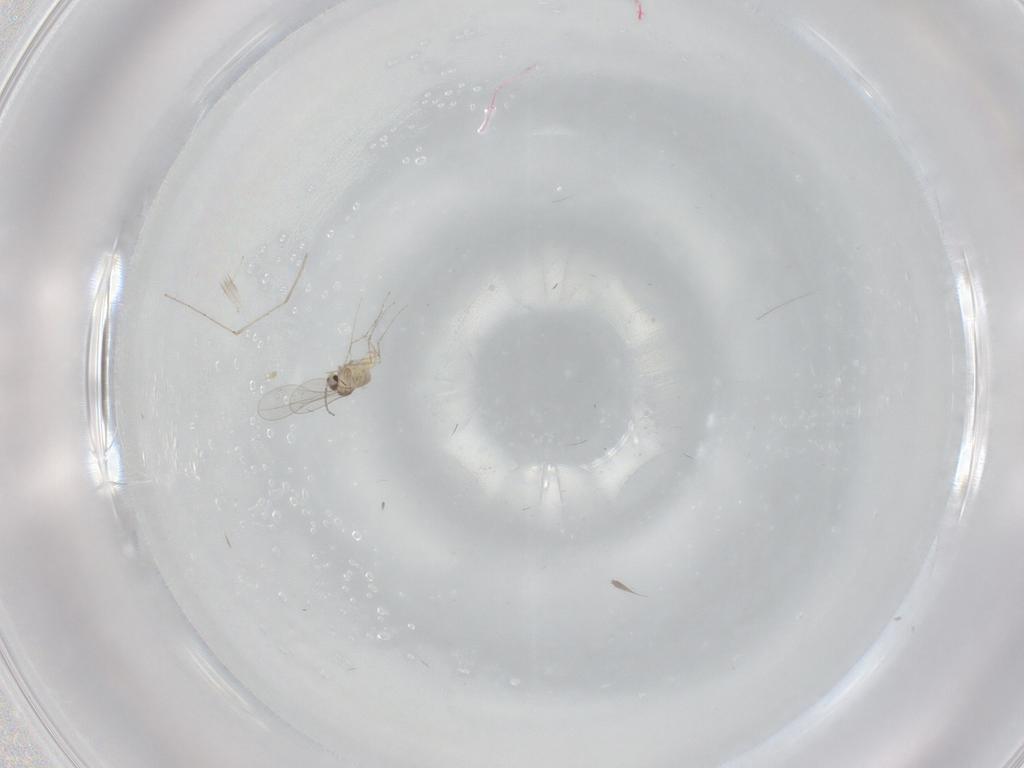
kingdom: Animalia
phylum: Arthropoda
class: Insecta
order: Diptera
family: Cecidomyiidae
